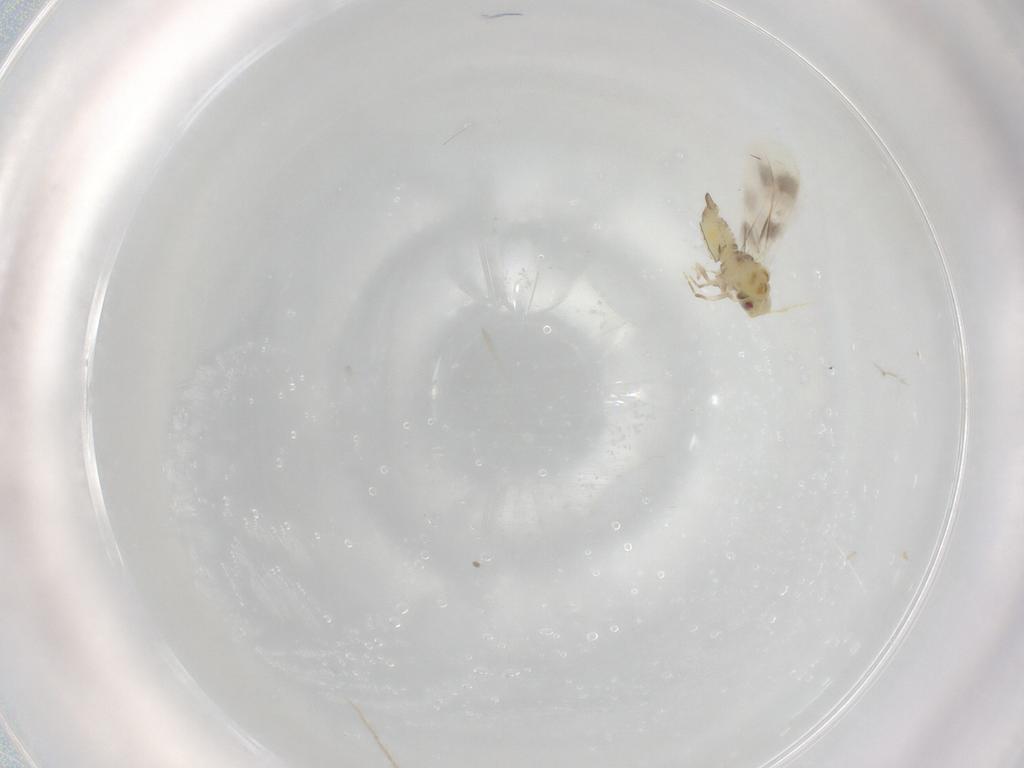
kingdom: Animalia
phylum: Arthropoda
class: Insecta
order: Hemiptera
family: Aleyrodidae
